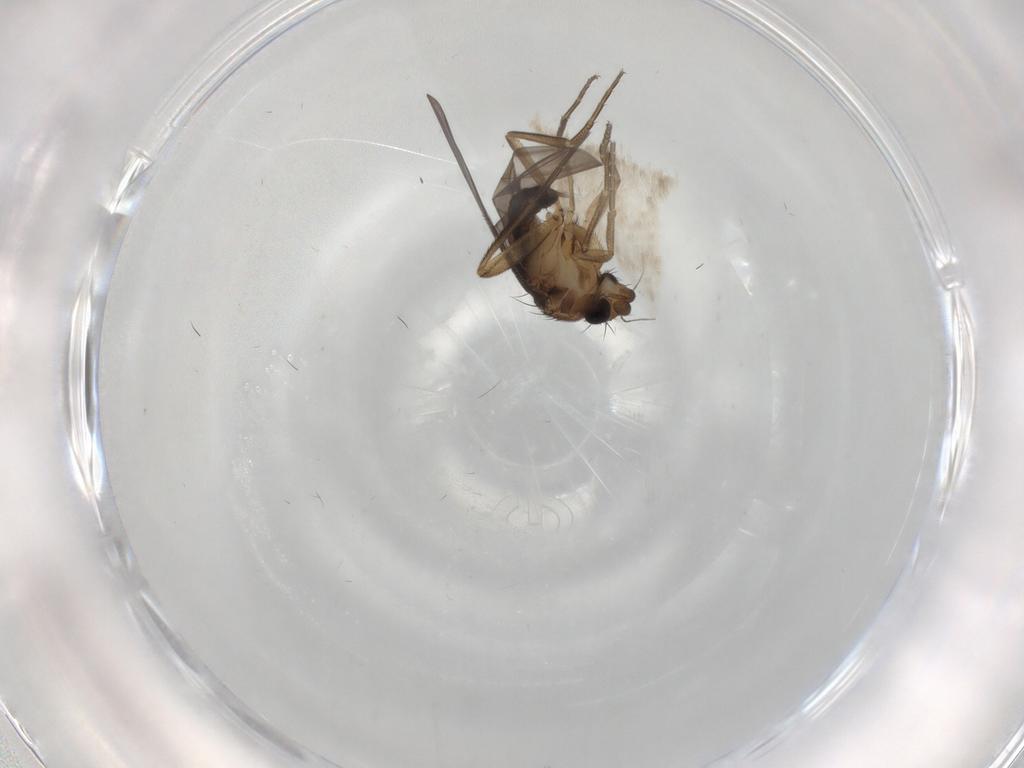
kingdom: Animalia
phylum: Arthropoda
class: Insecta
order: Diptera
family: Phoridae
